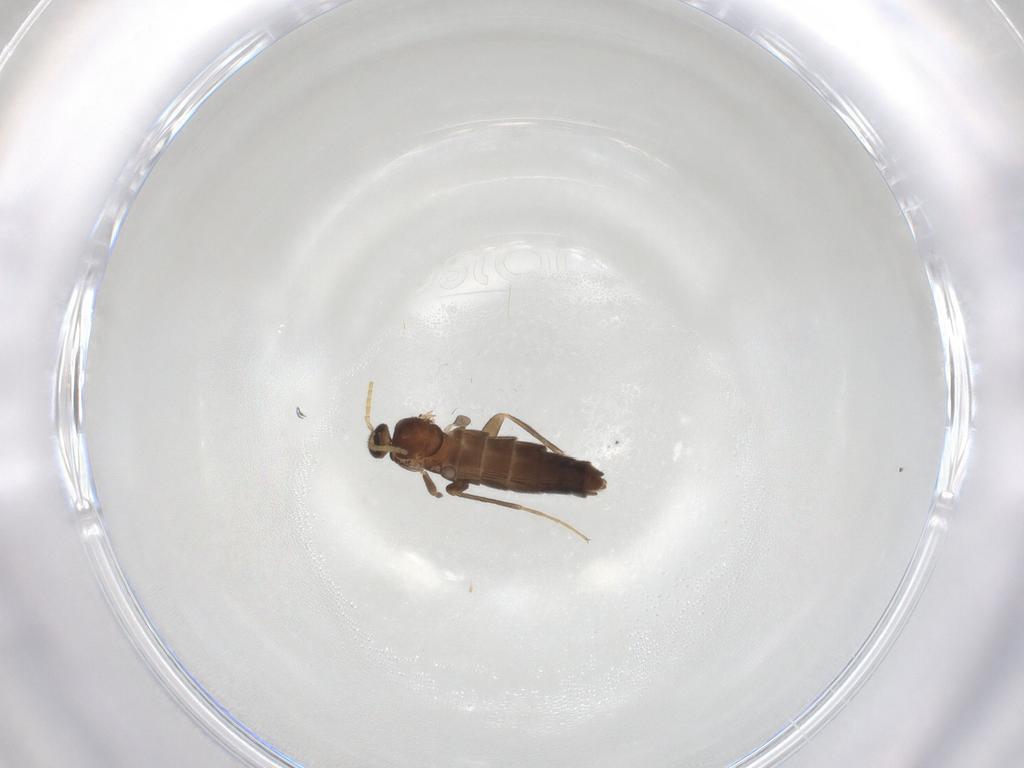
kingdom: Animalia
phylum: Arthropoda
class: Insecta
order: Diptera
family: Scatopsidae
